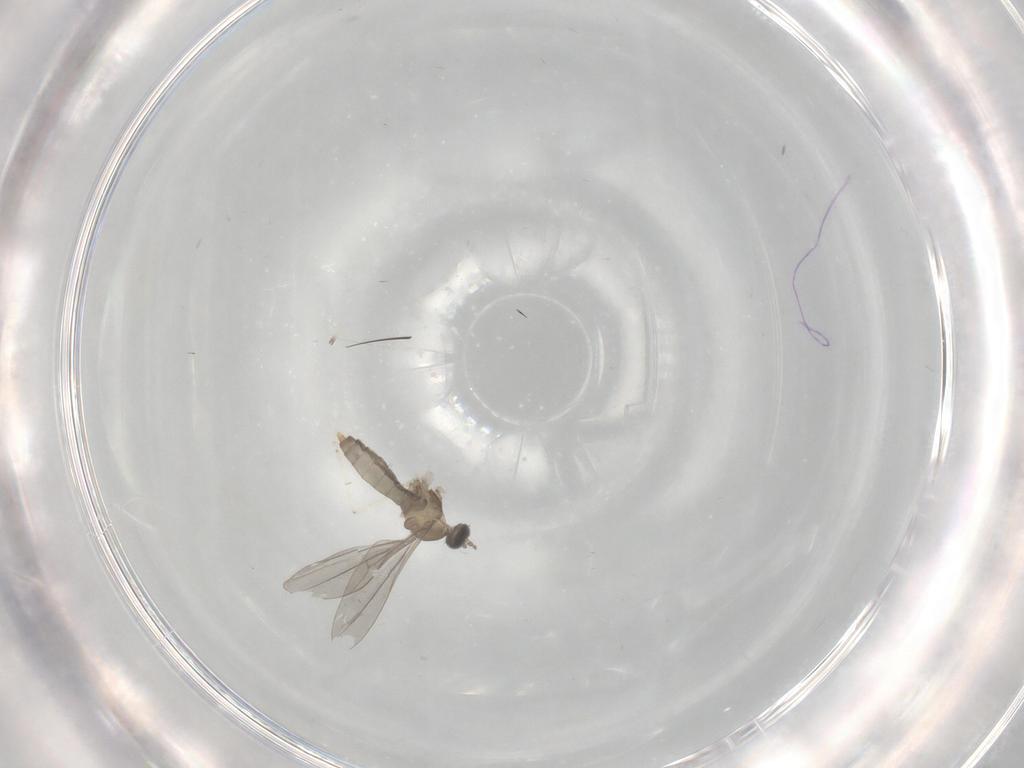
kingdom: Animalia
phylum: Arthropoda
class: Insecta
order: Diptera
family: Cecidomyiidae
